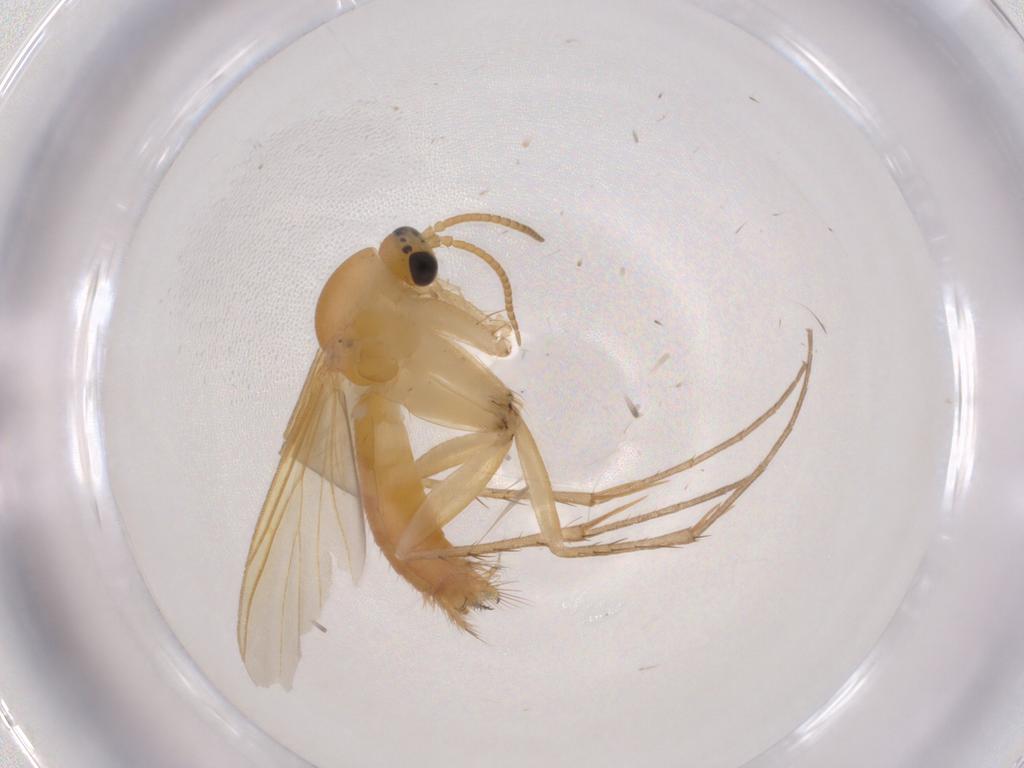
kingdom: Animalia
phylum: Arthropoda
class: Insecta
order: Diptera
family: Mycetophilidae
